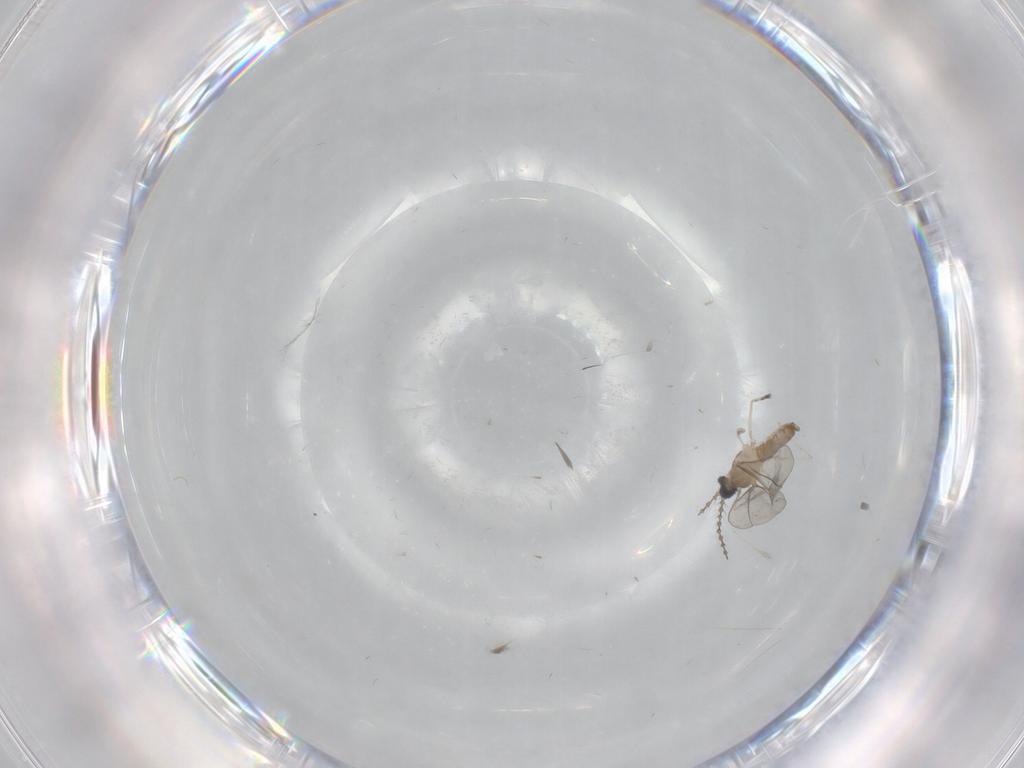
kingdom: Animalia
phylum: Arthropoda
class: Insecta
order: Diptera
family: Cecidomyiidae
